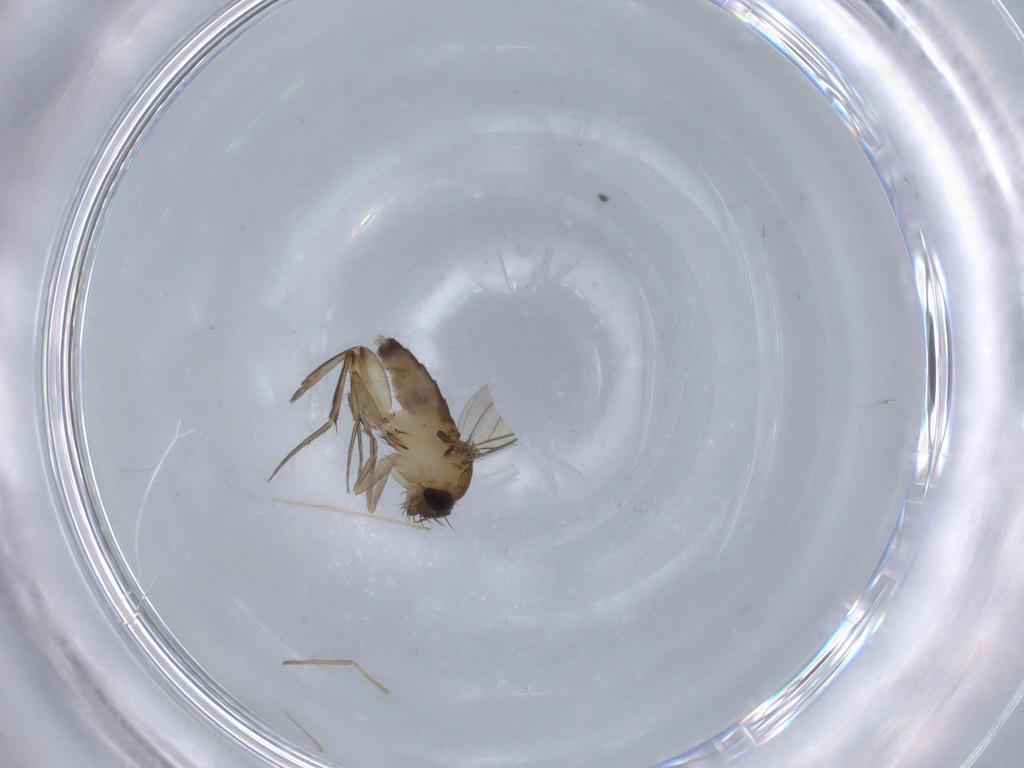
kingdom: Animalia
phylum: Arthropoda
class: Insecta
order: Diptera
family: Phoridae
